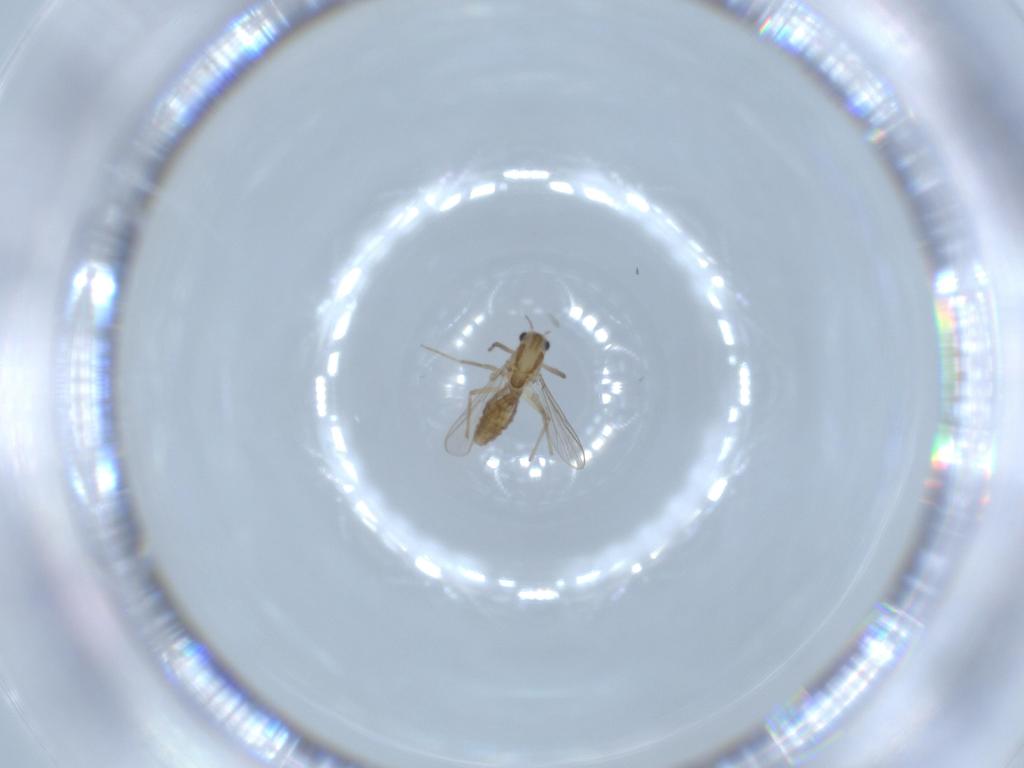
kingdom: Animalia
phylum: Arthropoda
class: Insecta
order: Diptera
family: Chironomidae
